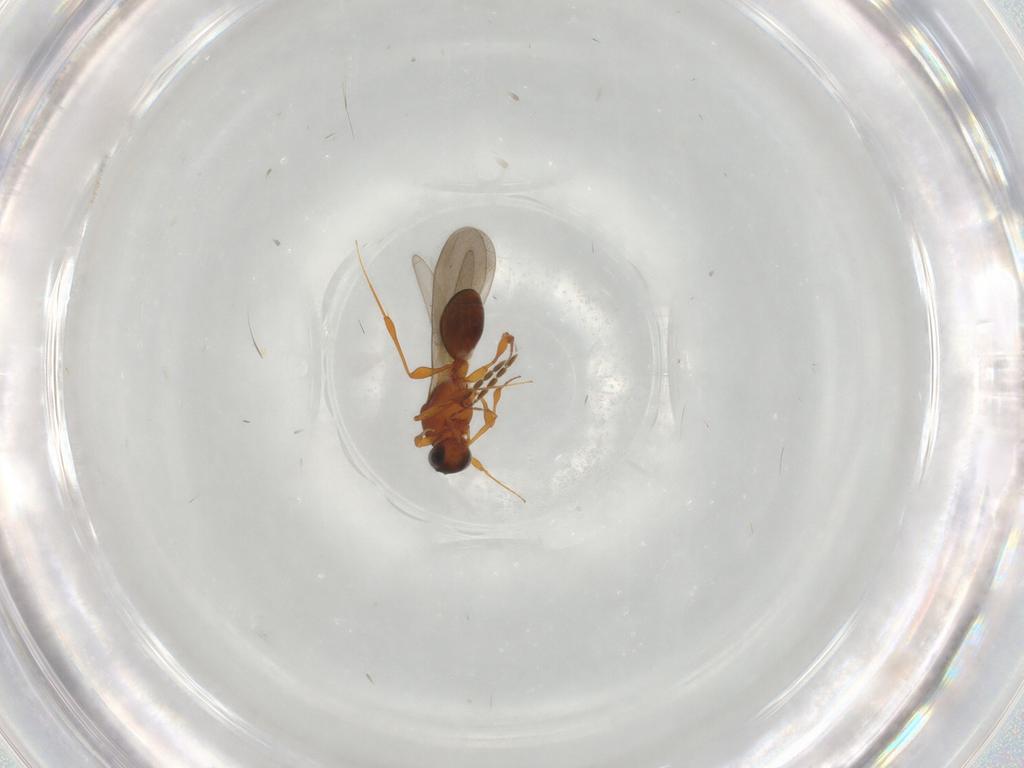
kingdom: Animalia
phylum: Arthropoda
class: Insecta
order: Hymenoptera
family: Platygastridae
